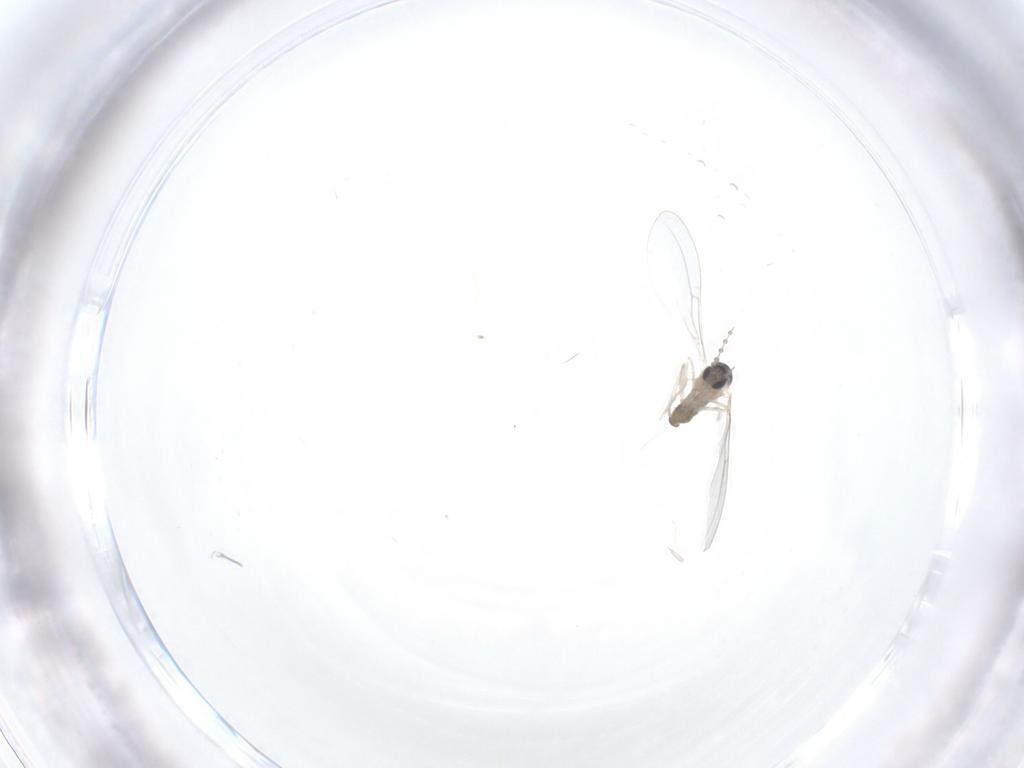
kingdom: Animalia
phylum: Arthropoda
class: Insecta
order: Diptera
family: Cecidomyiidae
